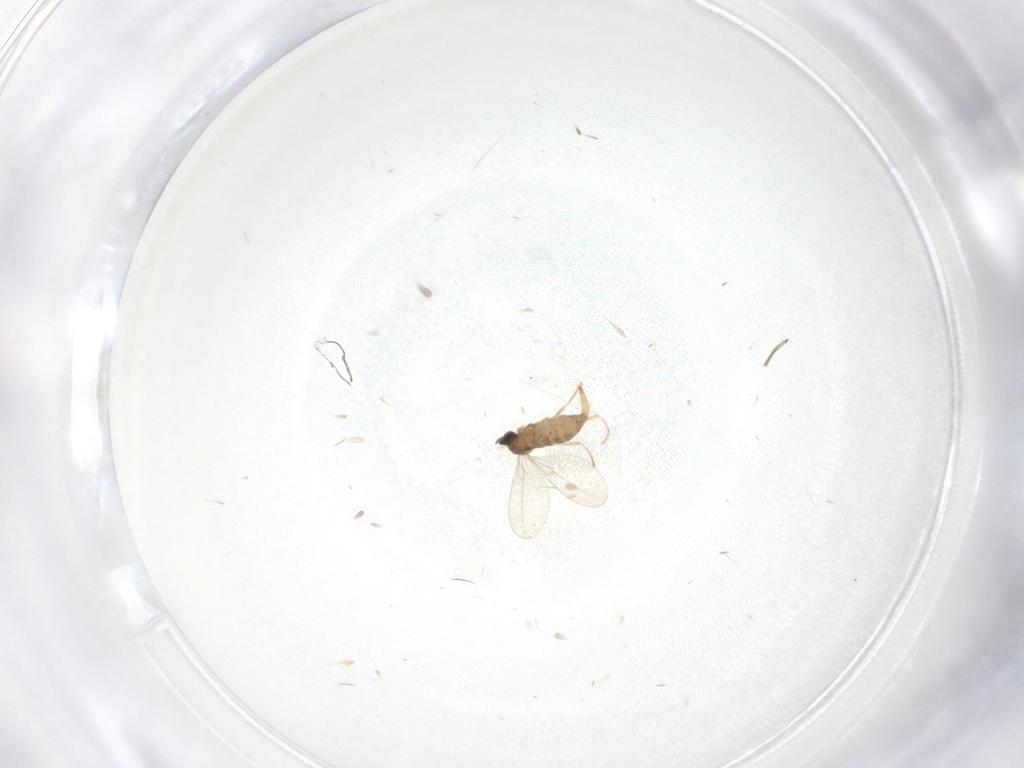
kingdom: Animalia
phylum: Arthropoda
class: Insecta
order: Diptera
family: Cecidomyiidae
